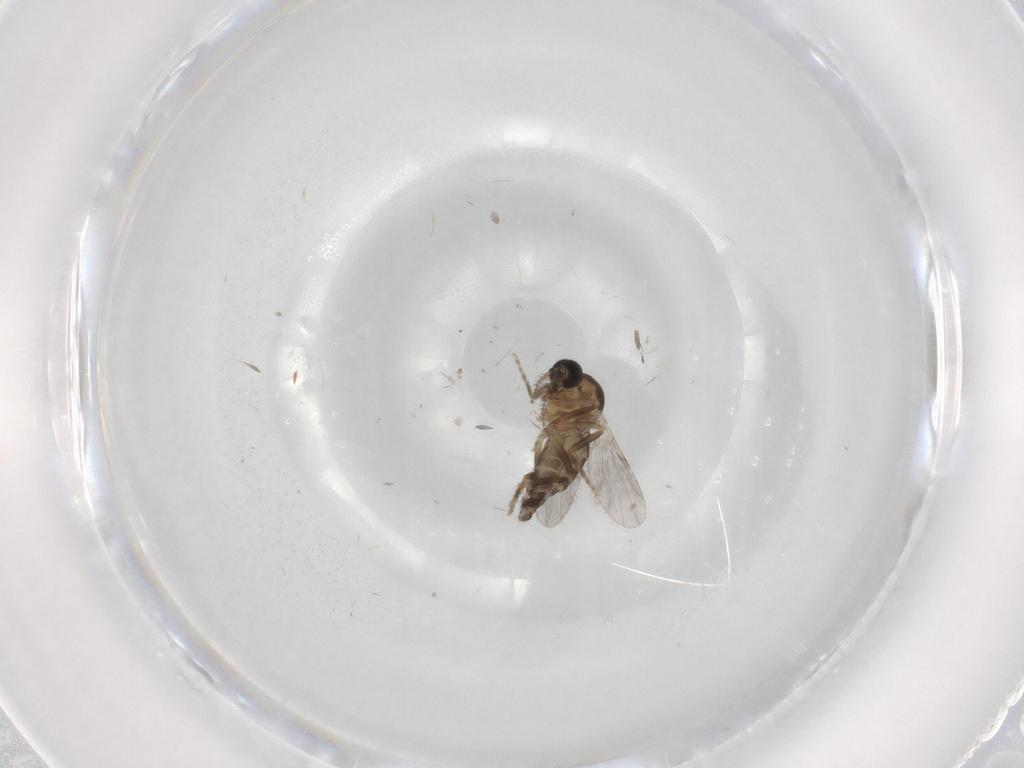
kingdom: Animalia
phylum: Arthropoda
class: Insecta
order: Diptera
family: Ceratopogonidae
